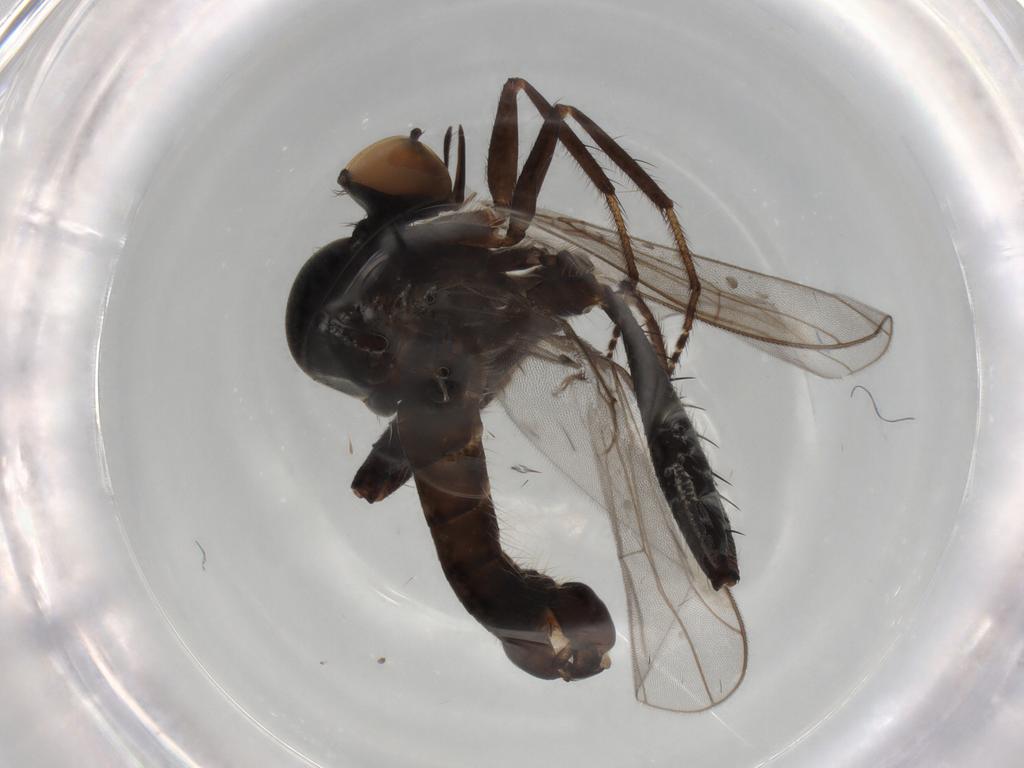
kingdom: Animalia
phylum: Arthropoda
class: Insecta
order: Diptera
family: Hybotidae
